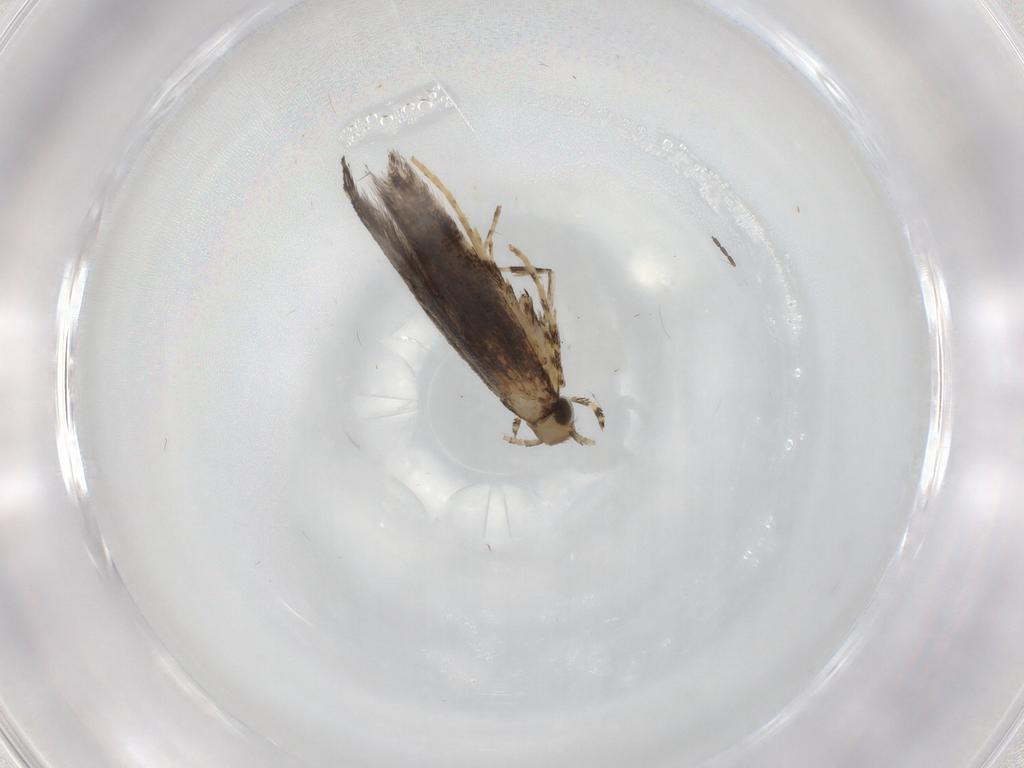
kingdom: Animalia
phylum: Arthropoda
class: Insecta
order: Lepidoptera
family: Gracillariidae
